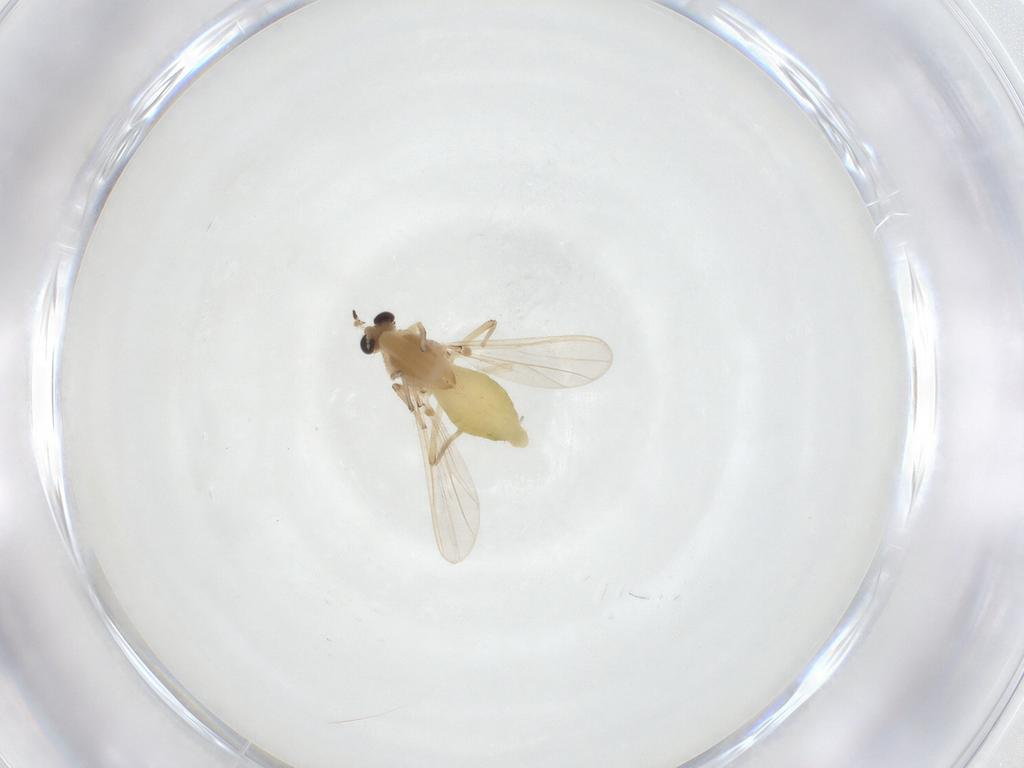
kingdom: Animalia
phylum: Arthropoda
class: Insecta
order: Diptera
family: Chironomidae
